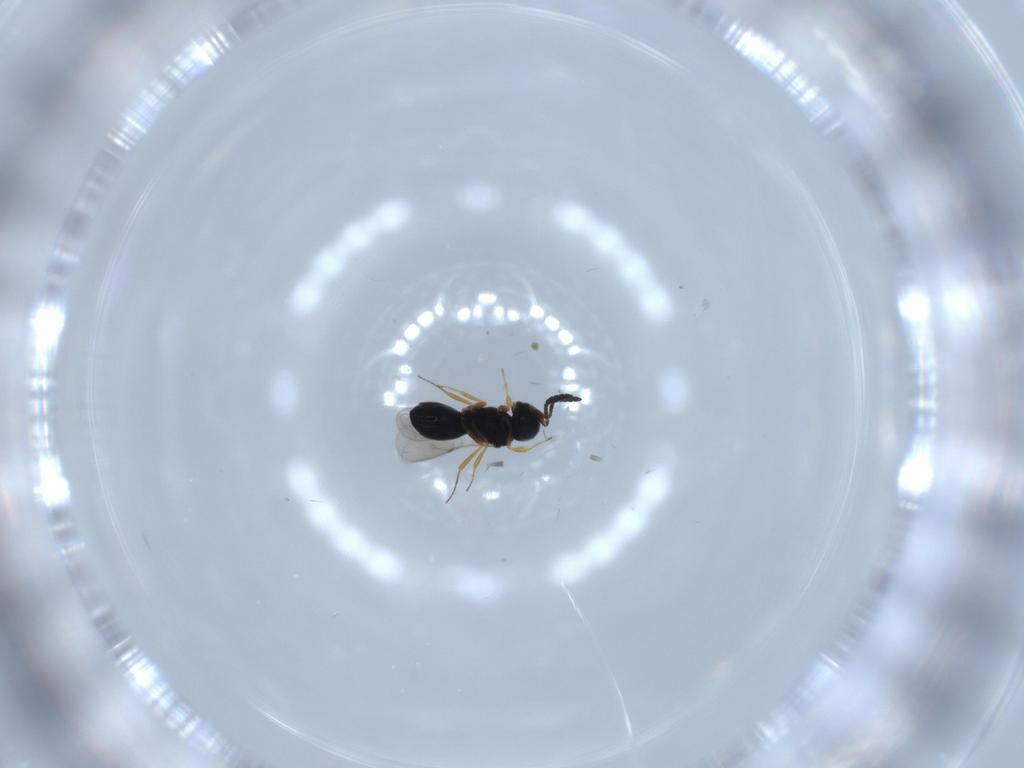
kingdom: Animalia
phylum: Arthropoda
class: Insecta
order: Hymenoptera
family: Scelionidae
